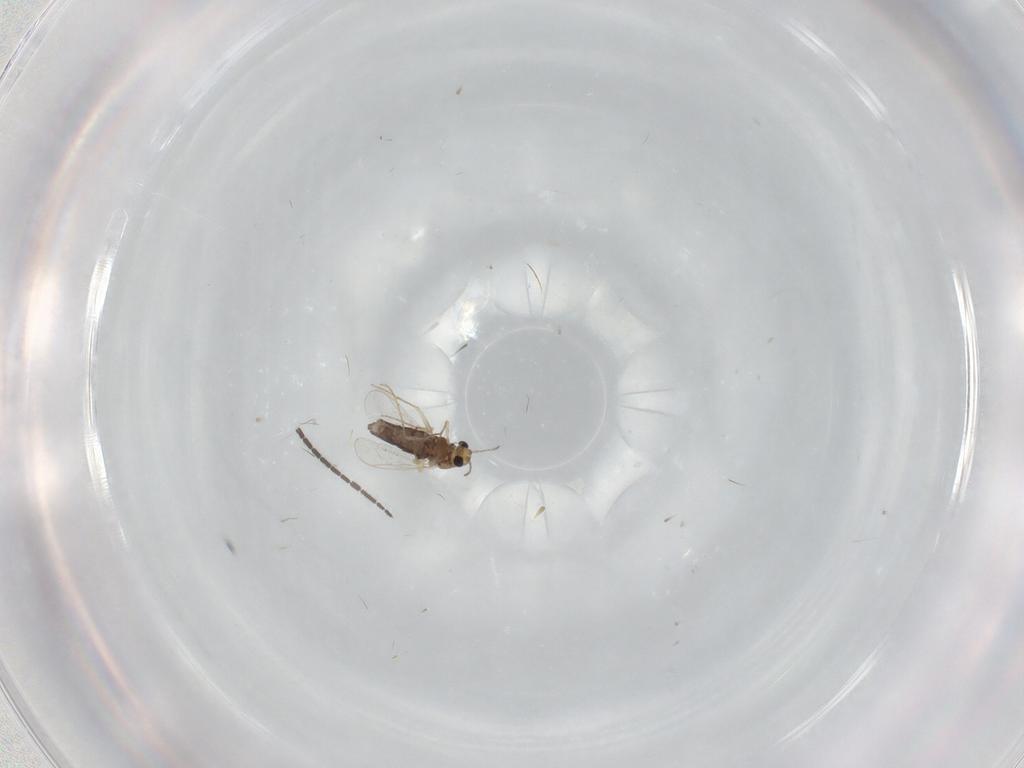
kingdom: Animalia
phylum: Arthropoda
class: Insecta
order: Diptera
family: Chironomidae
